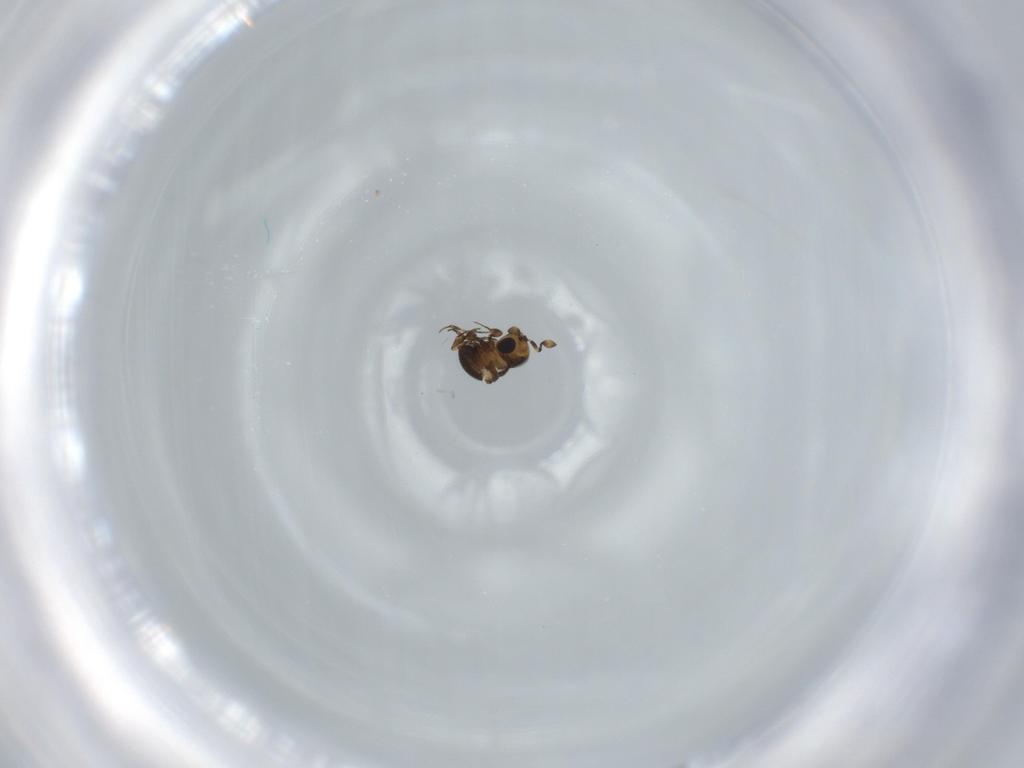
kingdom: Animalia
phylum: Arthropoda
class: Insecta
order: Hymenoptera
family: Scelionidae
